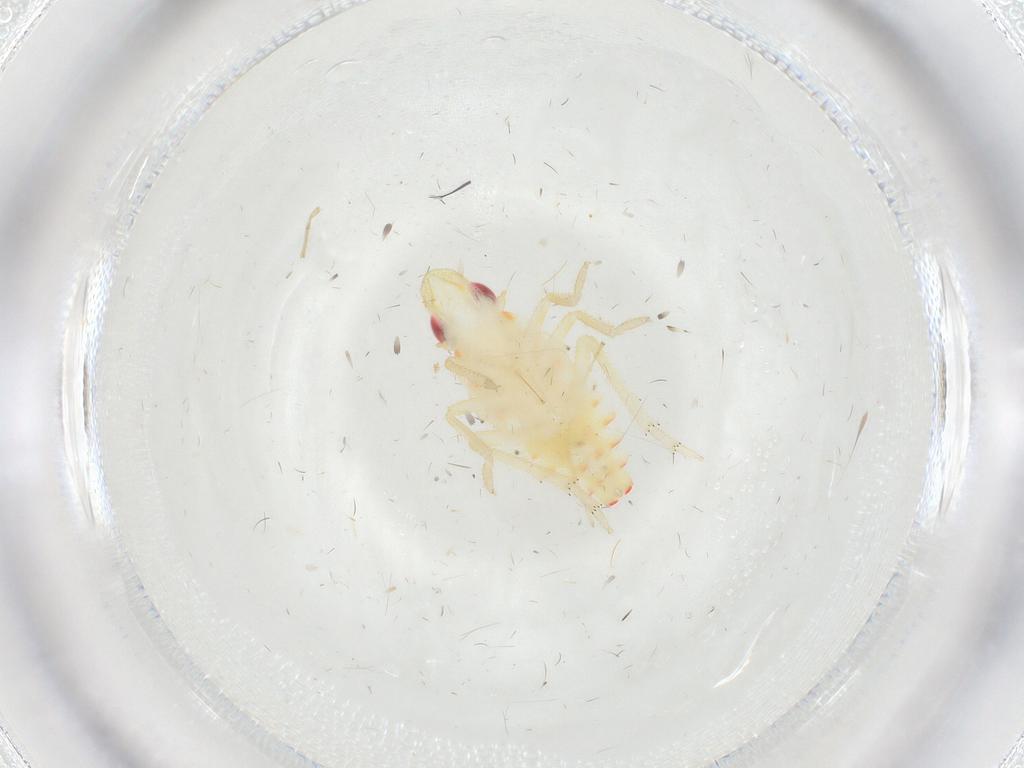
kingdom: Animalia
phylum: Arthropoda
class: Insecta
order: Hemiptera
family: Tropiduchidae
